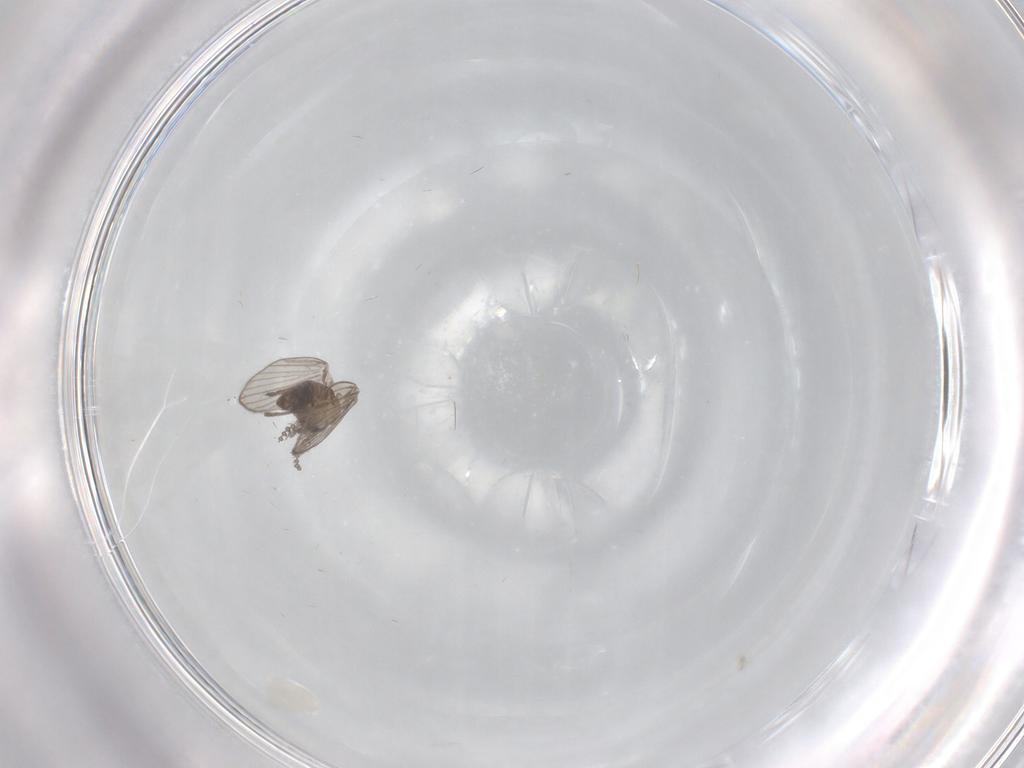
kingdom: Animalia
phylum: Arthropoda
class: Insecta
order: Diptera
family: Psychodidae
